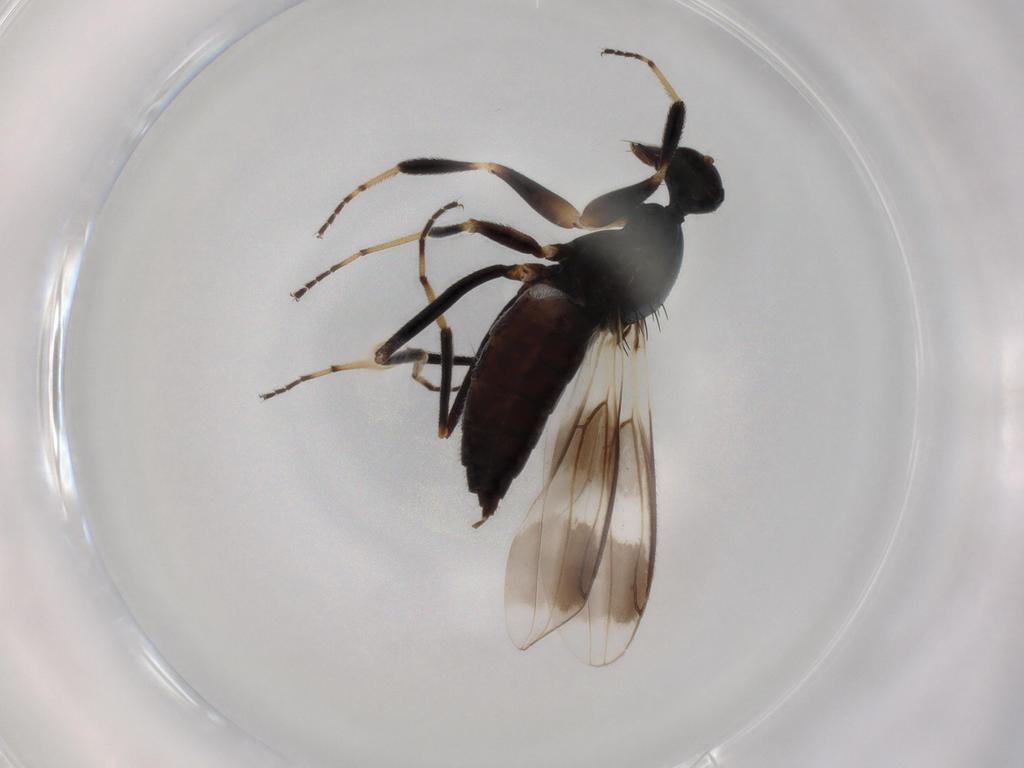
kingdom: Animalia
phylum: Arthropoda
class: Insecta
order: Diptera
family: Hybotidae
